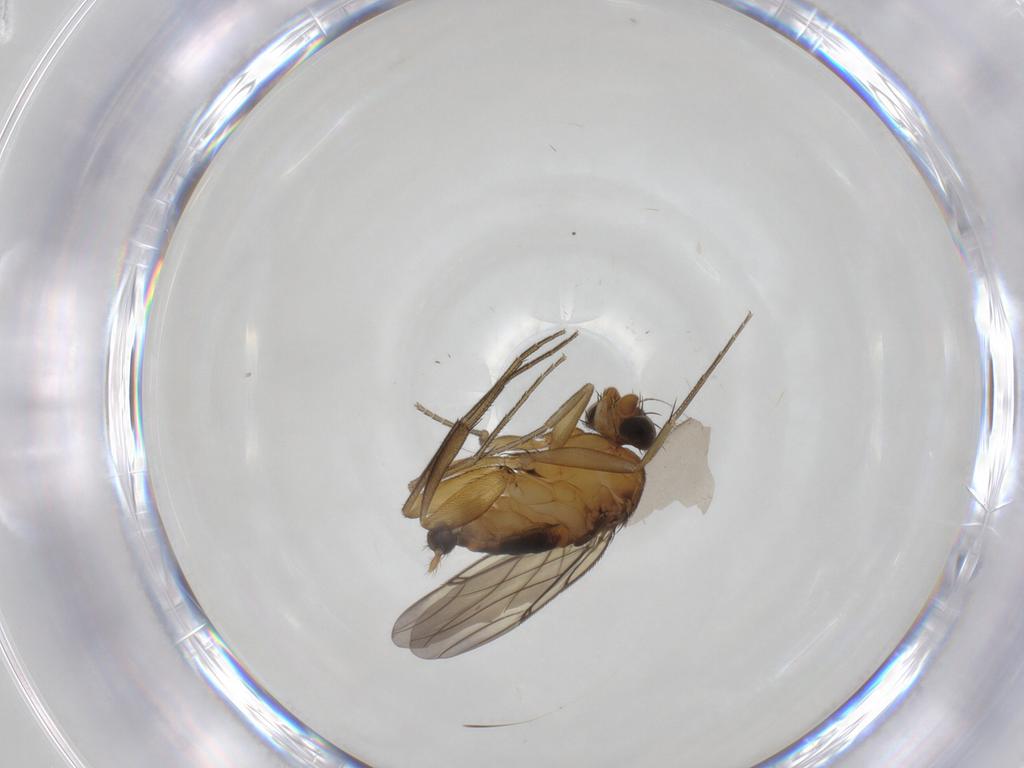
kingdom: Animalia
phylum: Arthropoda
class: Insecta
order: Diptera
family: Phoridae
